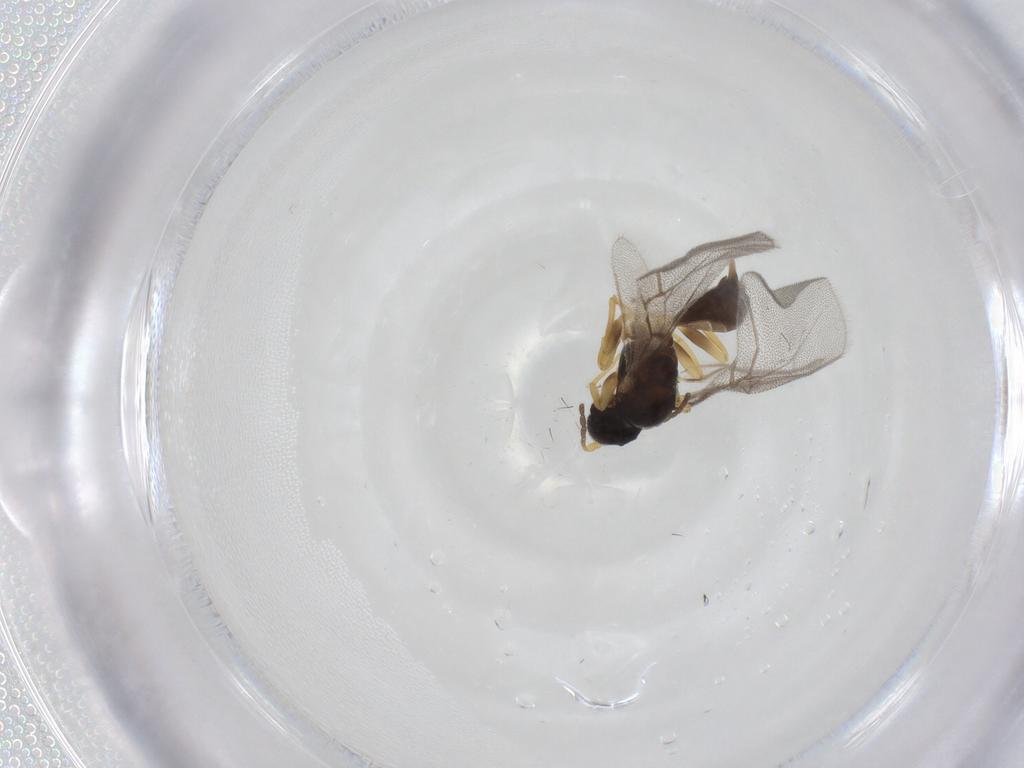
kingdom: Animalia
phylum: Arthropoda
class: Insecta
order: Hymenoptera
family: Cynipidae
